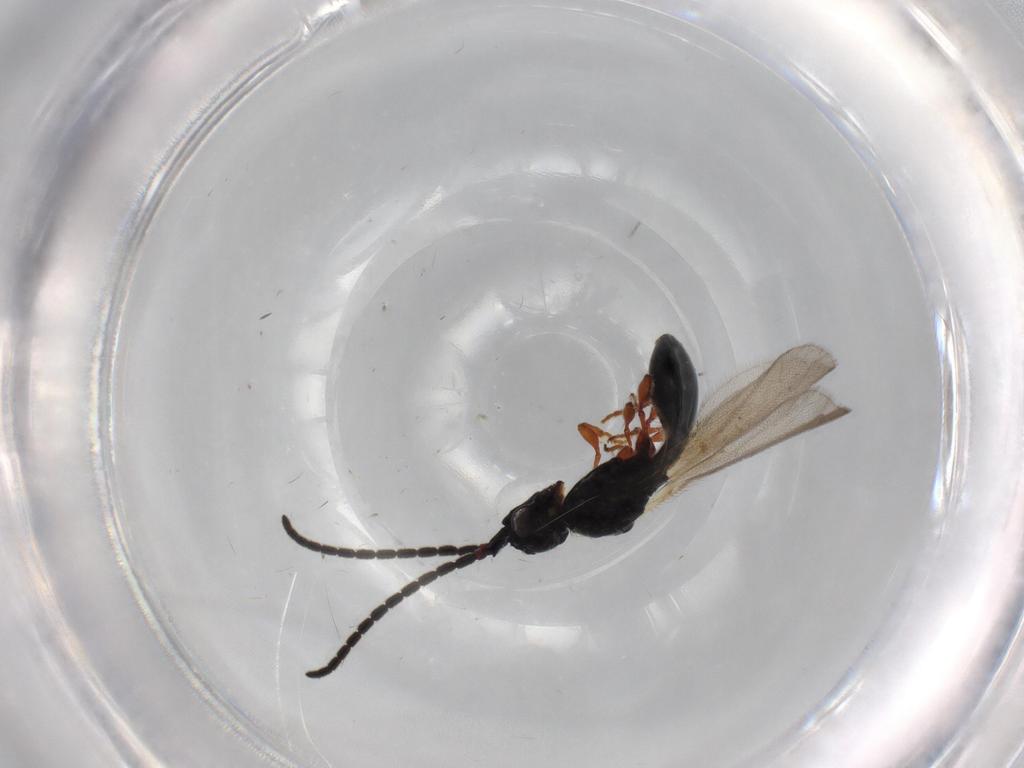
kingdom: Animalia
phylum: Arthropoda
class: Insecta
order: Hymenoptera
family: Diapriidae
